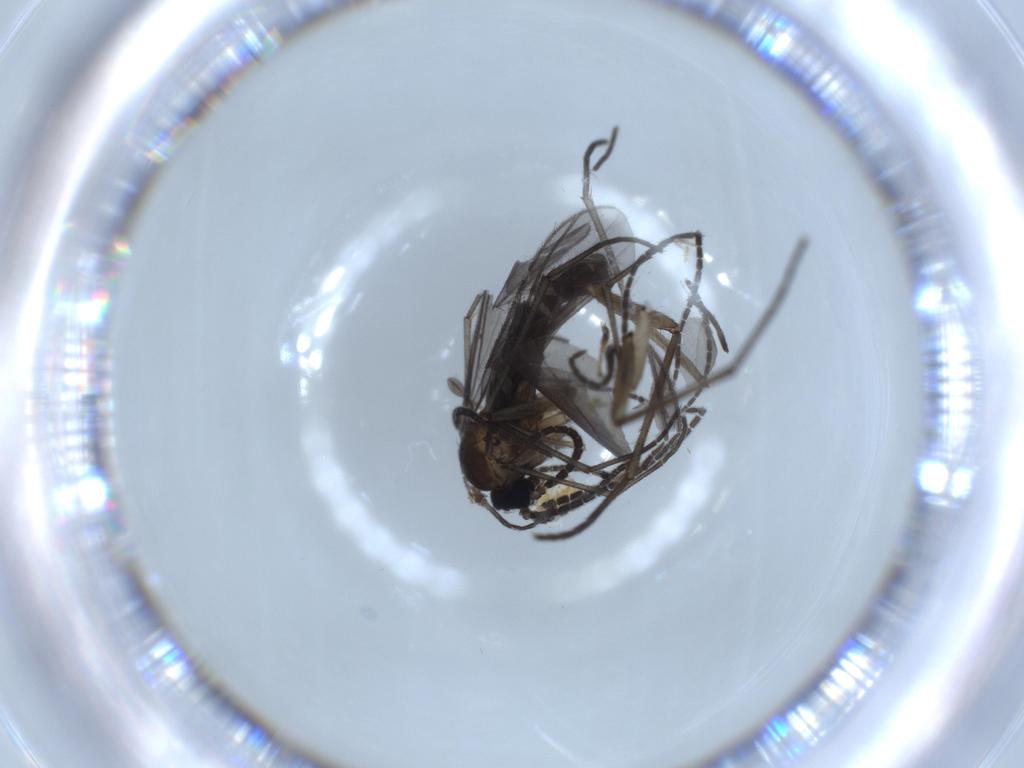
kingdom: Animalia
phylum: Arthropoda
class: Insecta
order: Diptera
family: Sciaridae
